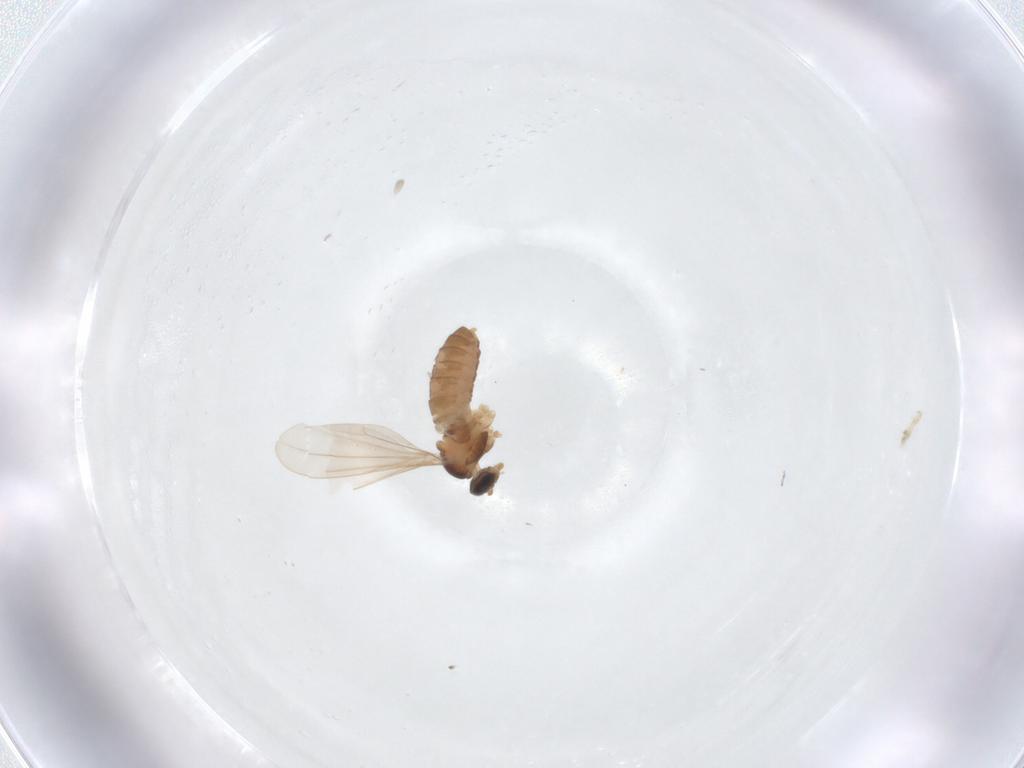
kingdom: Animalia
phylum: Arthropoda
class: Insecta
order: Diptera
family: Cecidomyiidae
